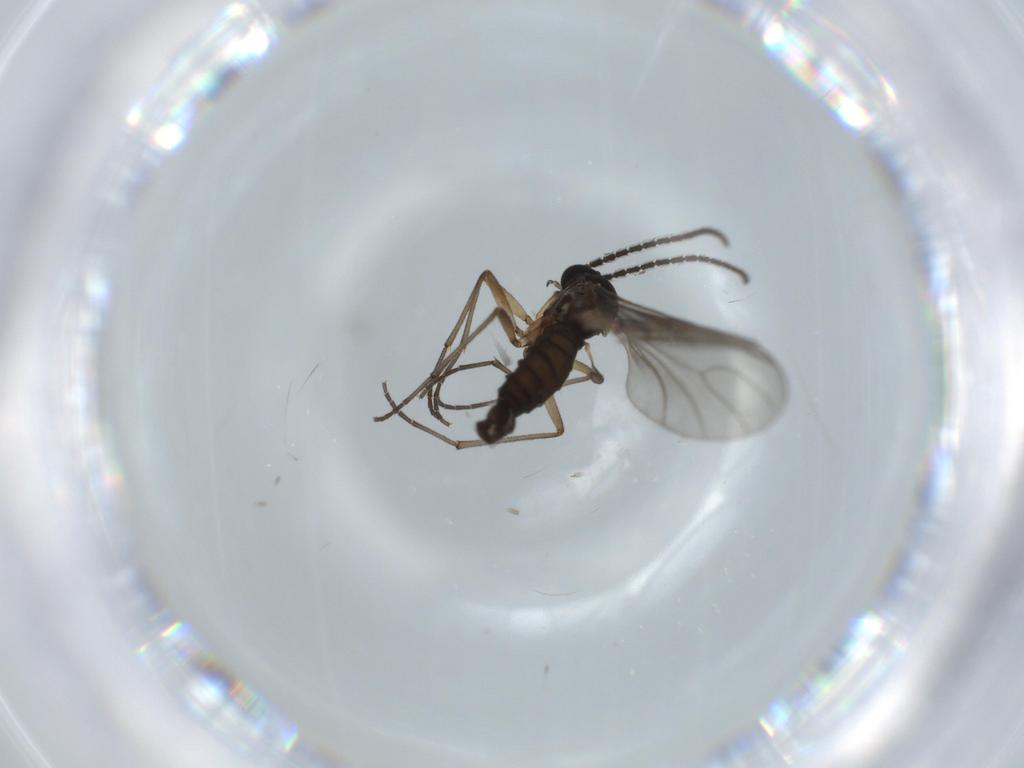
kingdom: Animalia
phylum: Arthropoda
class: Insecta
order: Diptera
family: Sciaridae
